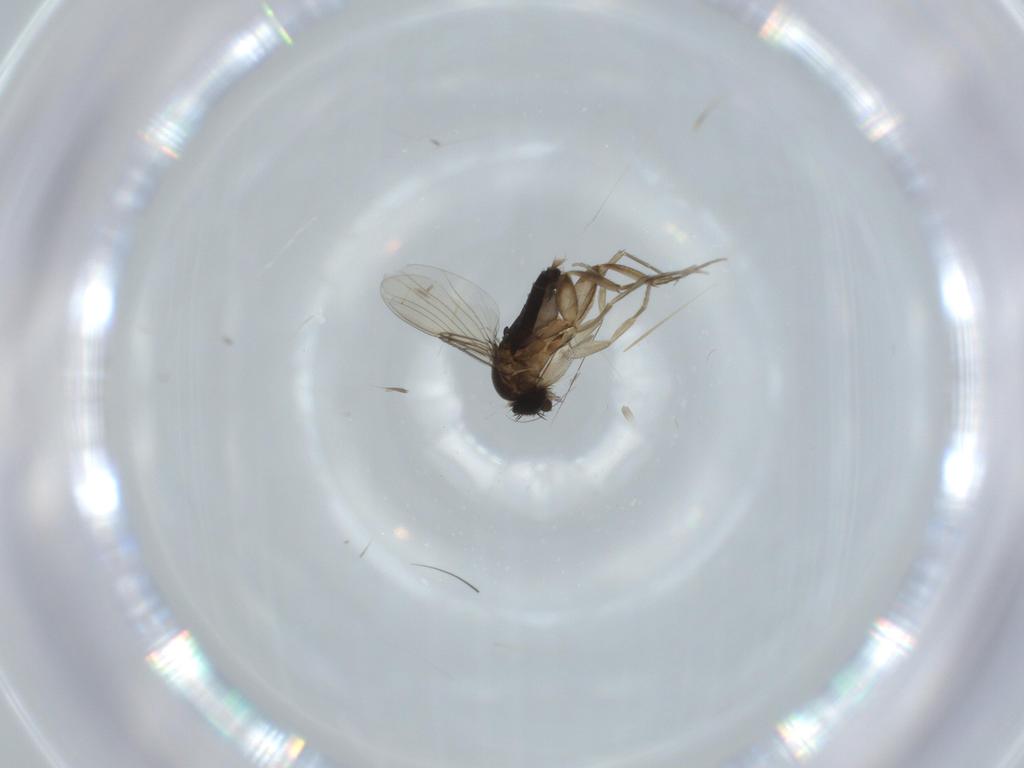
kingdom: Animalia
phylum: Arthropoda
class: Insecta
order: Diptera
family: Phoridae
